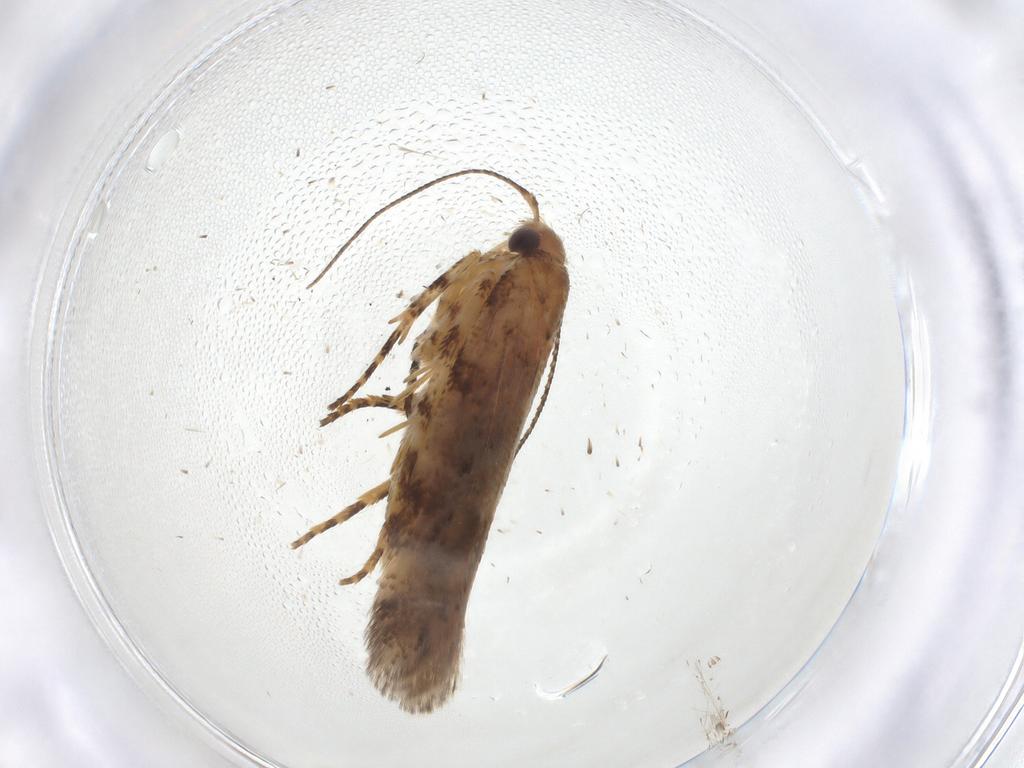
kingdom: Animalia
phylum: Arthropoda
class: Insecta
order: Lepidoptera
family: Gelechiidae
